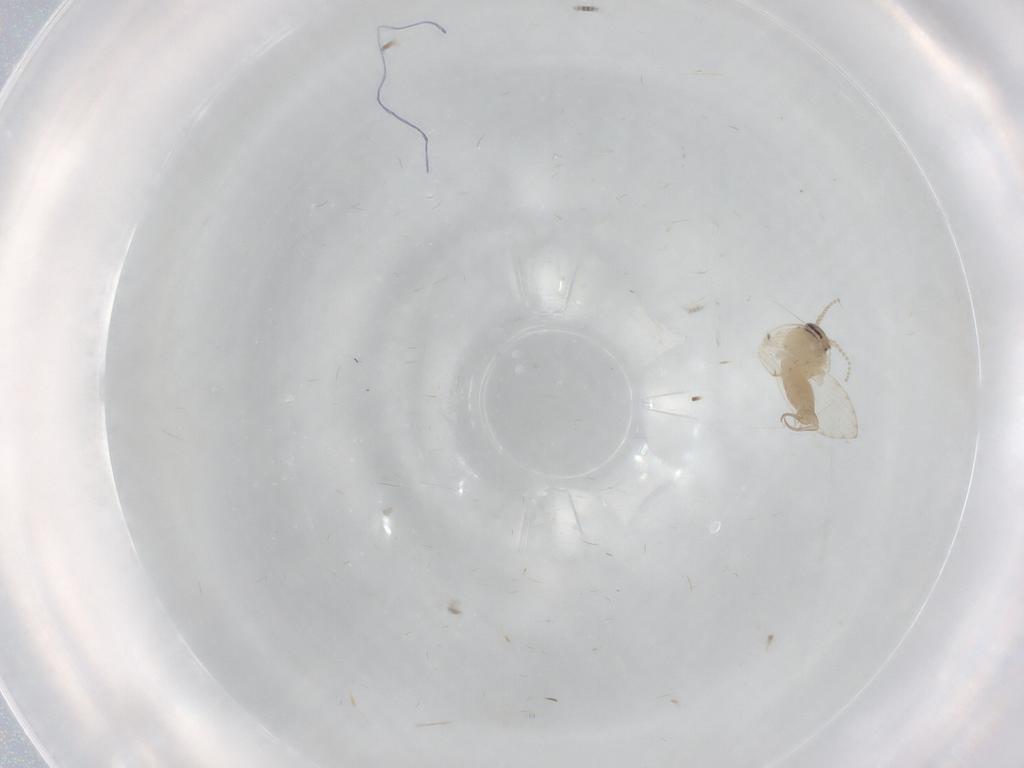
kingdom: Animalia
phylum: Arthropoda
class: Insecta
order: Diptera
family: Psychodidae
